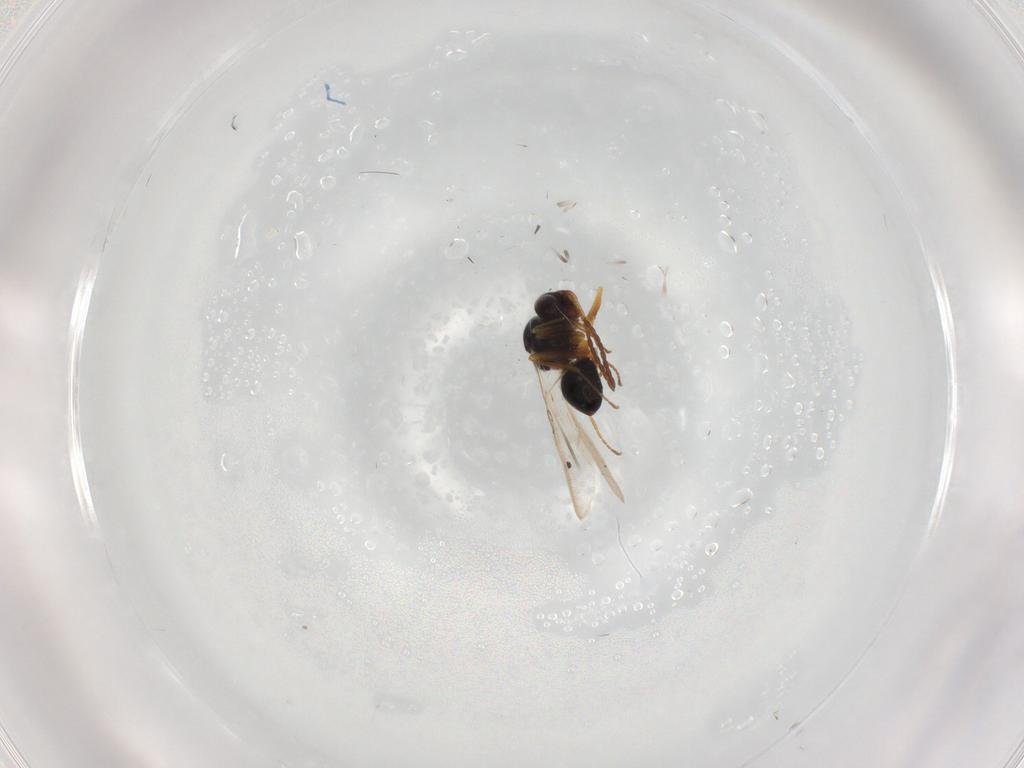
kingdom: Animalia
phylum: Arthropoda
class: Insecta
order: Hymenoptera
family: Figitidae
